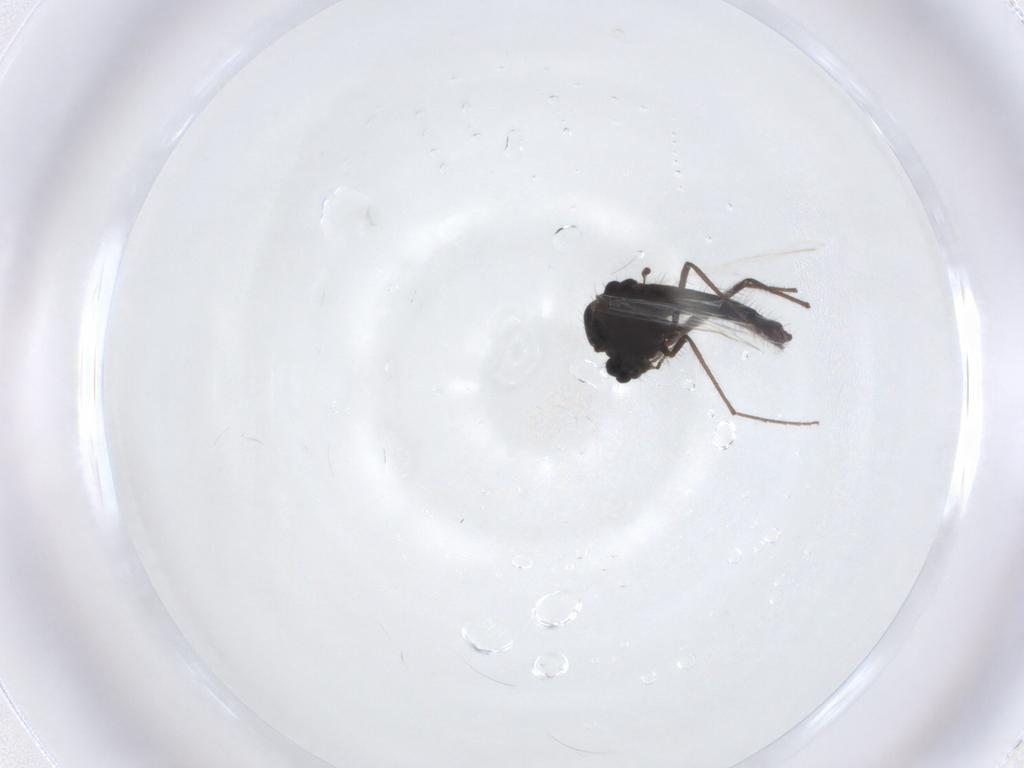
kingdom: Animalia
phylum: Arthropoda
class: Insecta
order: Diptera
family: Chironomidae
